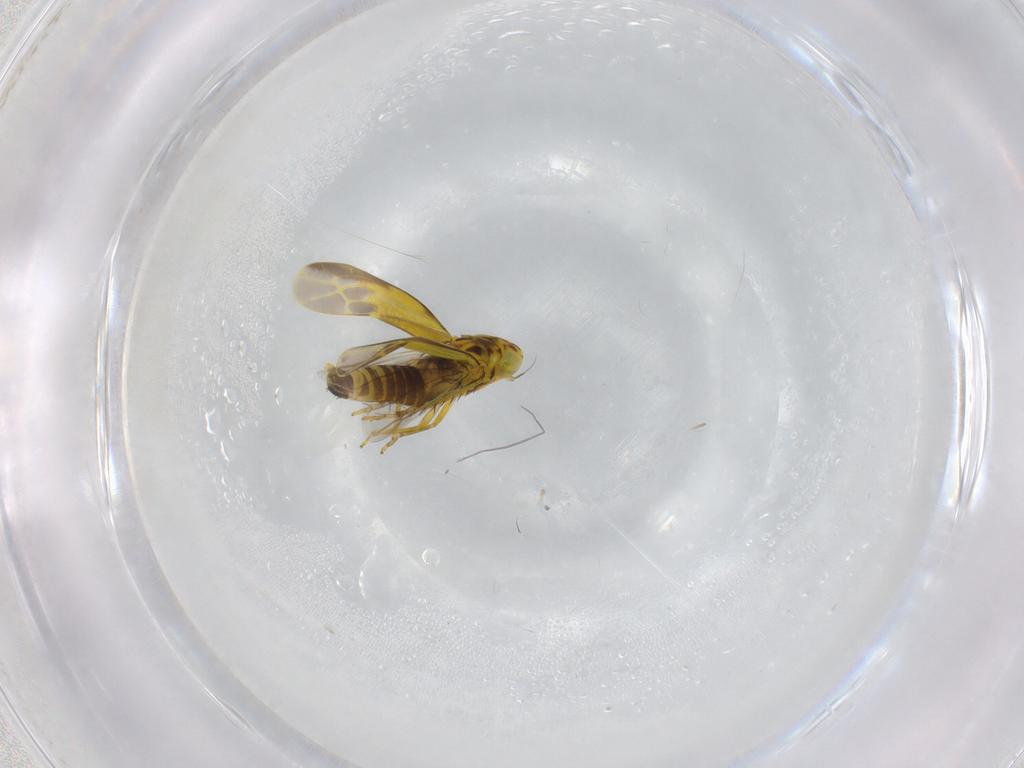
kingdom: Animalia
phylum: Arthropoda
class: Insecta
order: Hemiptera
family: Cicadellidae
